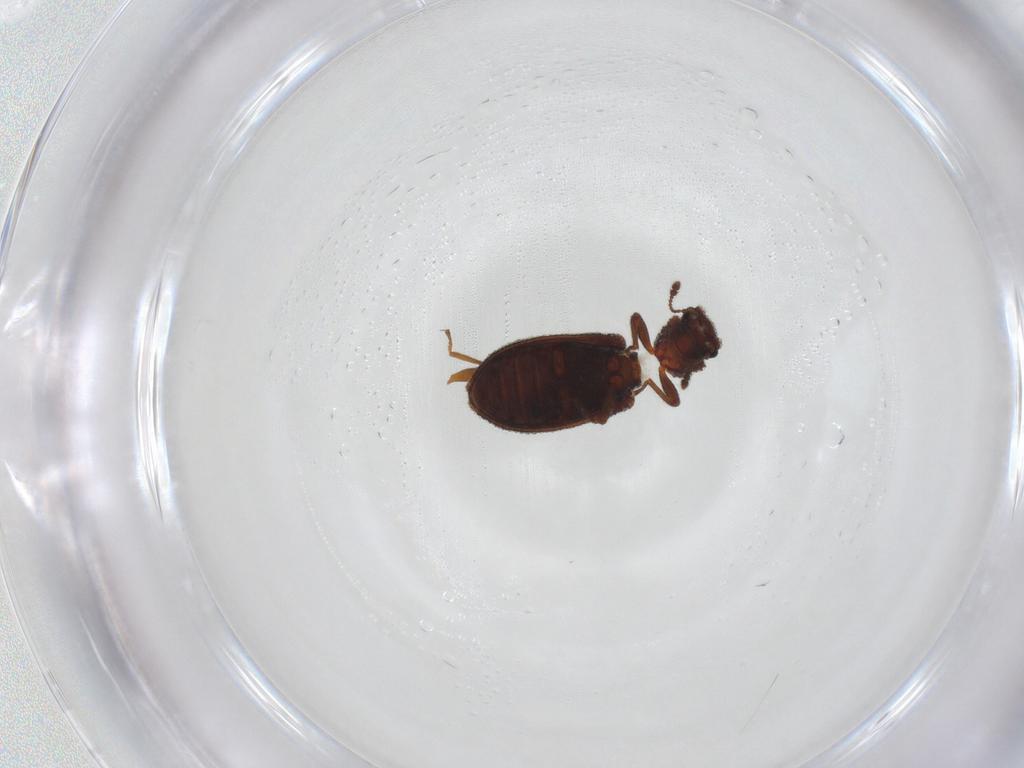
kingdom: Animalia
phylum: Arthropoda
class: Insecta
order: Coleoptera
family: Zopheridae
